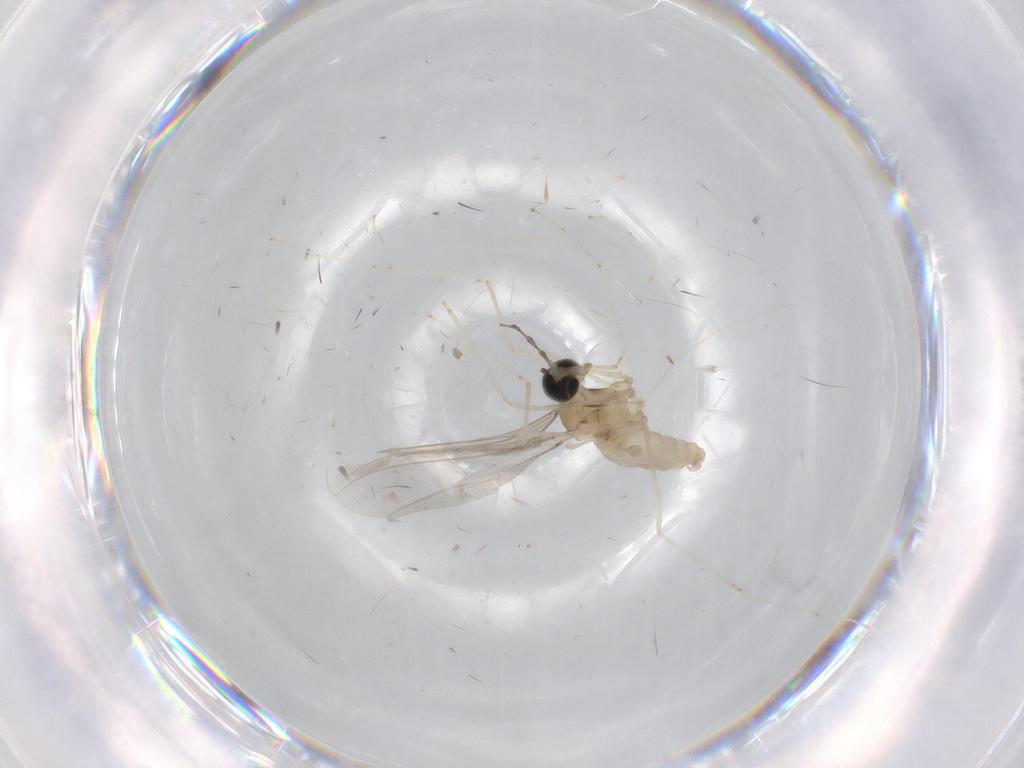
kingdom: Animalia
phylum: Arthropoda
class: Insecta
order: Diptera
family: Cecidomyiidae
